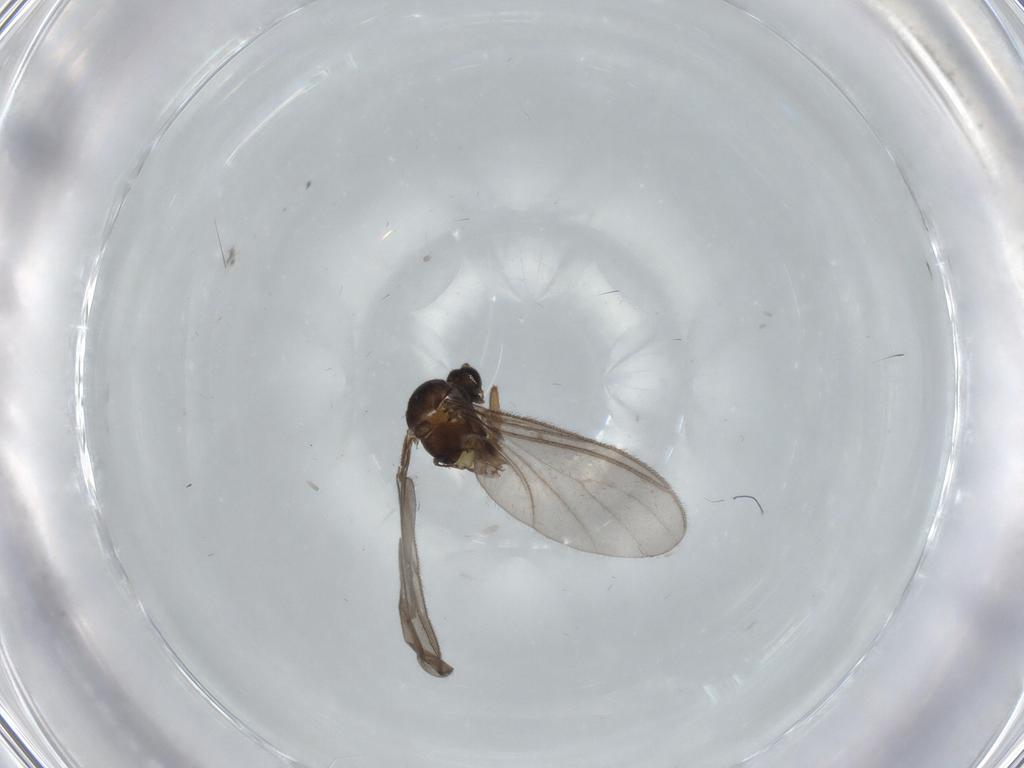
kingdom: Animalia
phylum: Arthropoda
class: Insecta
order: Diptera
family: Sciaridae
